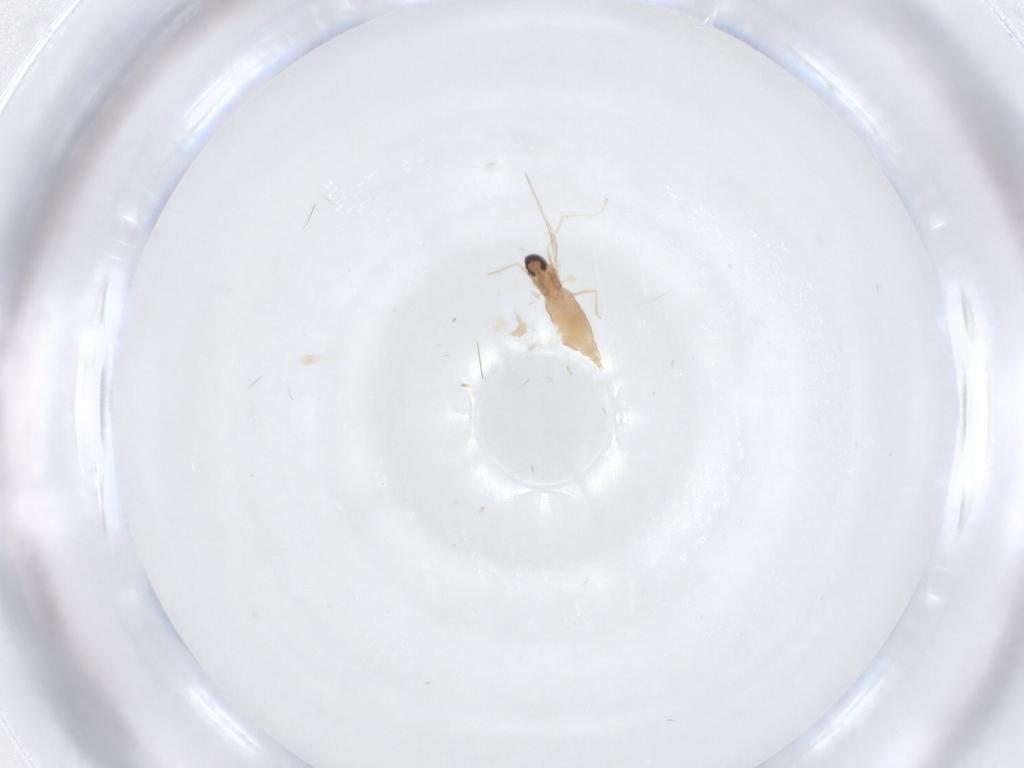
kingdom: Animalia
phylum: Arthropoda
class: Insecta
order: Diptera
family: Cecidomyiidae
